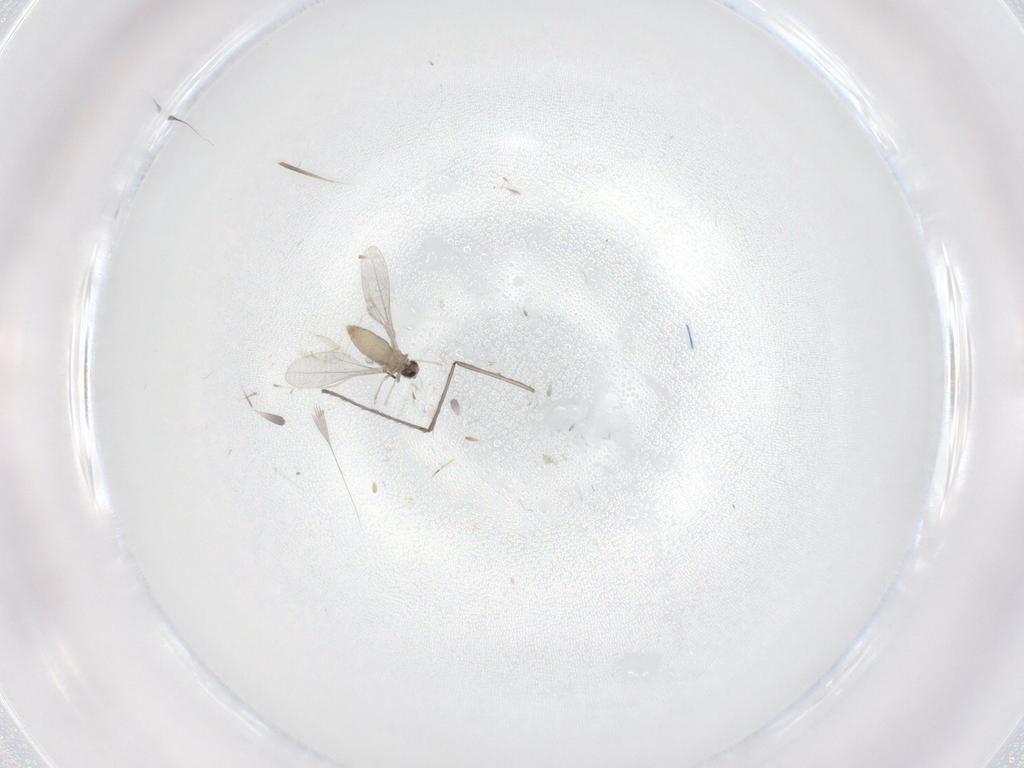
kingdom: Animalia
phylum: Arthropoda
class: Insecta
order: Diptera
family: Cecidomyiidae
